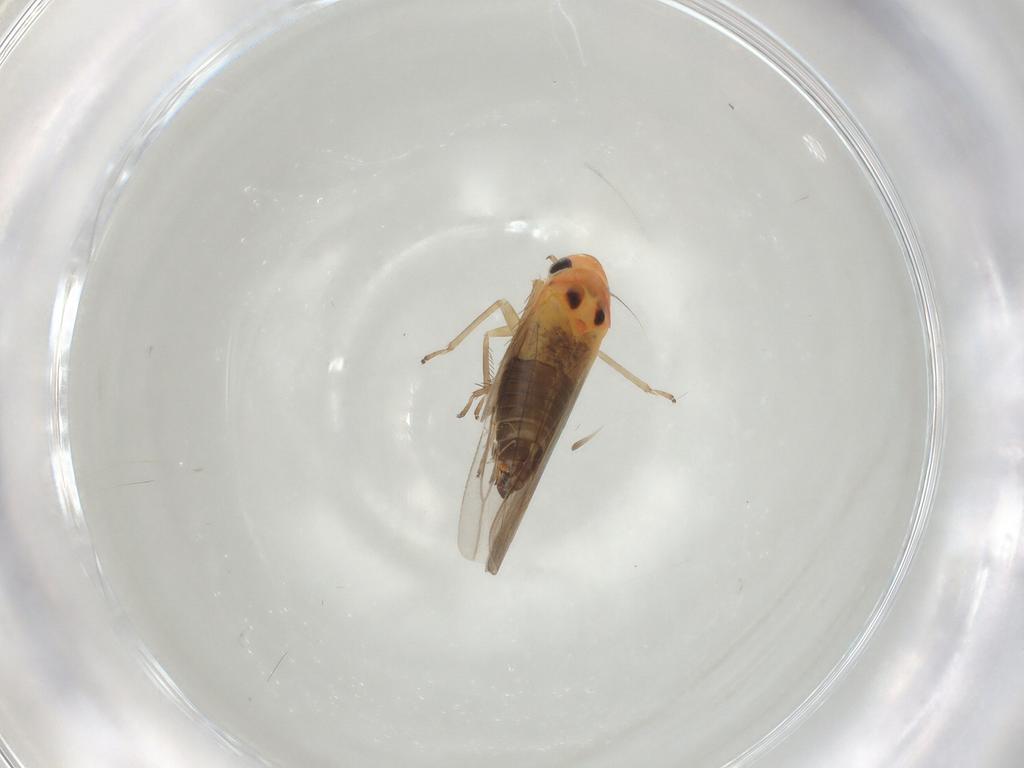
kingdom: Animalia
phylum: Arthropoda
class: Insecta
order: Hemiptera
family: Cicadellidae
